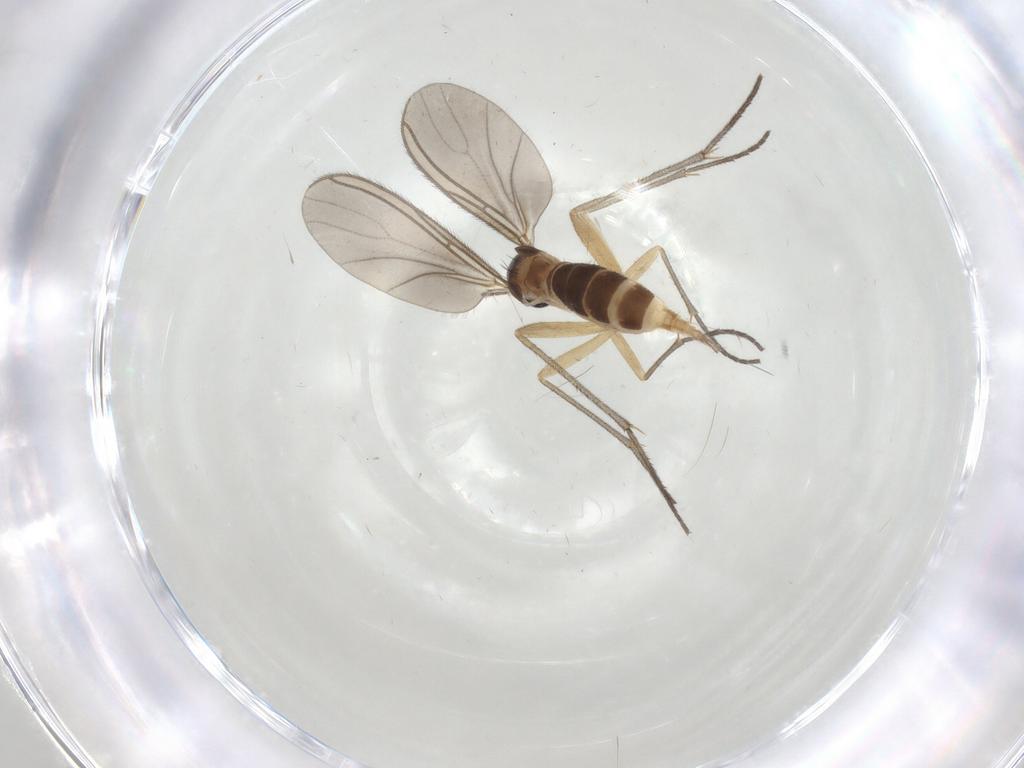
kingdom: Animalia
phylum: Arthropoda
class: Insecta
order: Diptera
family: Sciaridae
